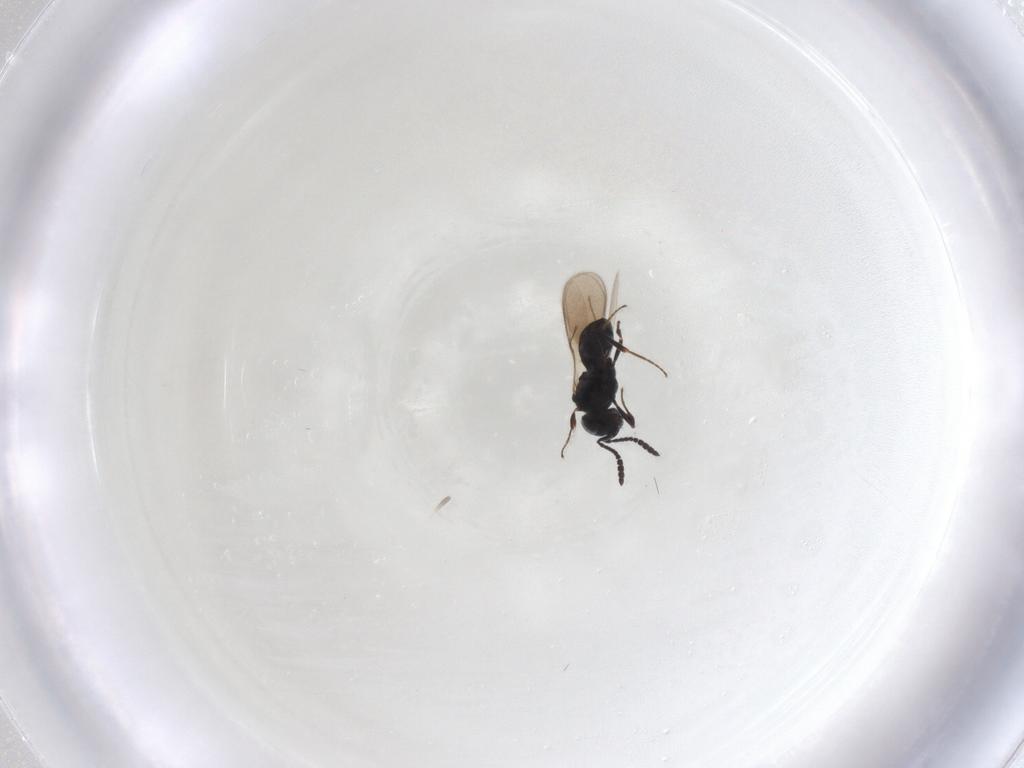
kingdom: Animalia
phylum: Arthropoda
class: Insecta
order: Hymenoptera
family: Scelionidae
